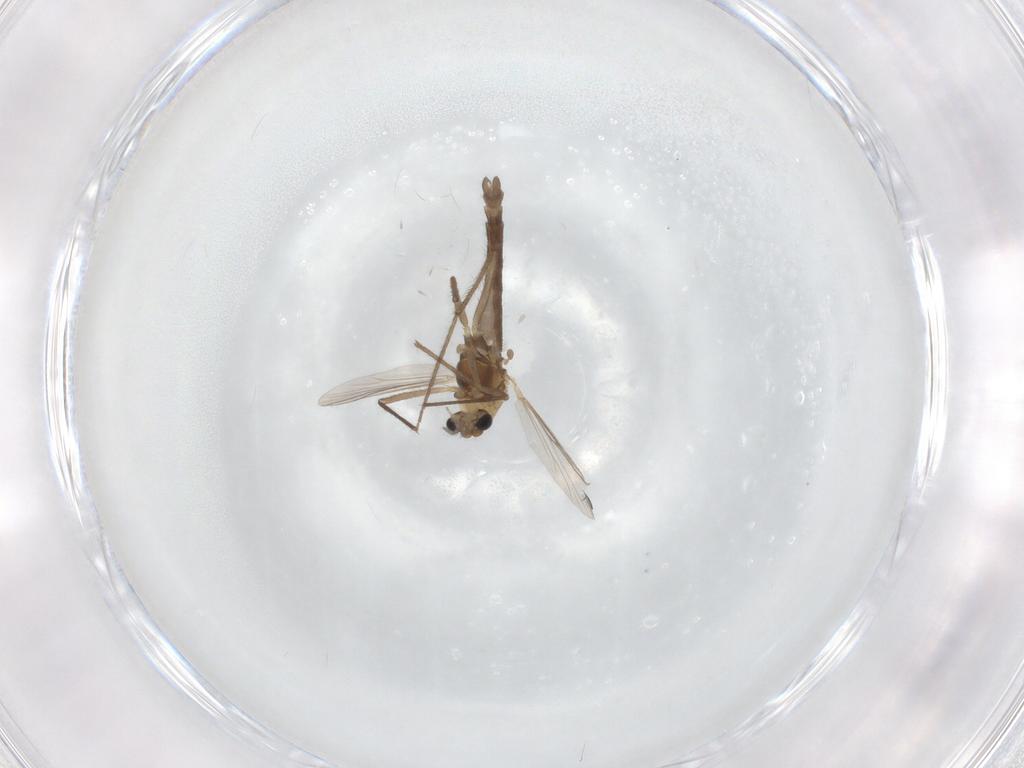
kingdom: Animalia
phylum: Arthropoda
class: Insecta
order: Diptera
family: Chironomidae
